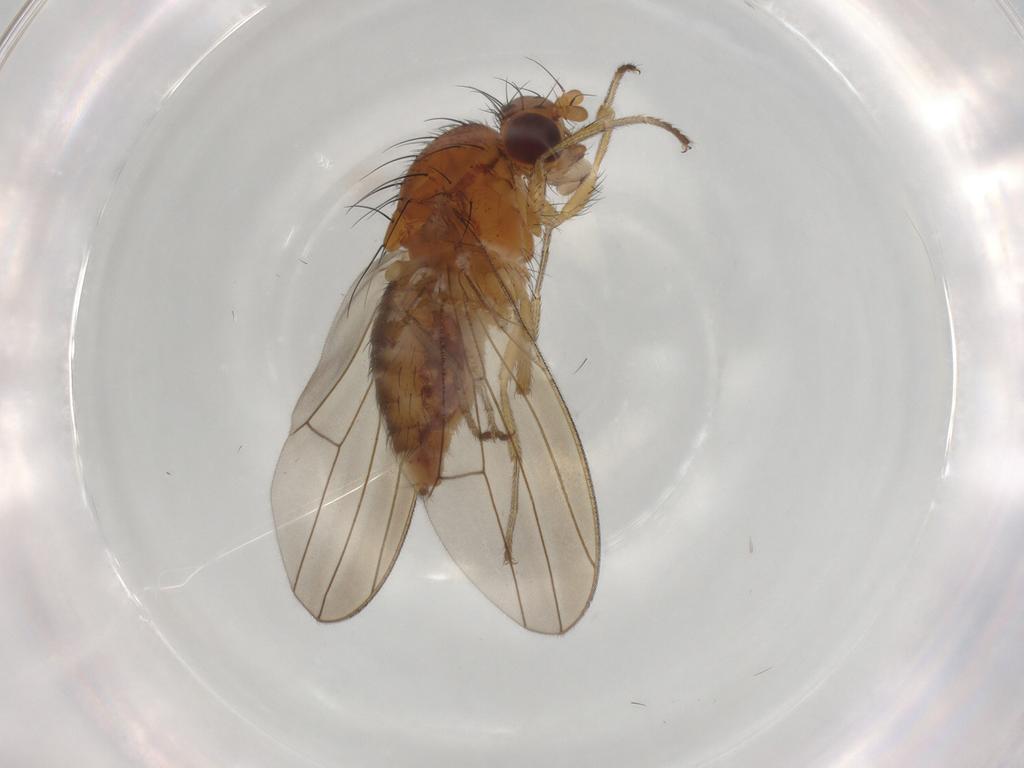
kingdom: Animalia
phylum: Arthropoda
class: Insecta
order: Diptera
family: Lauxaniidae
